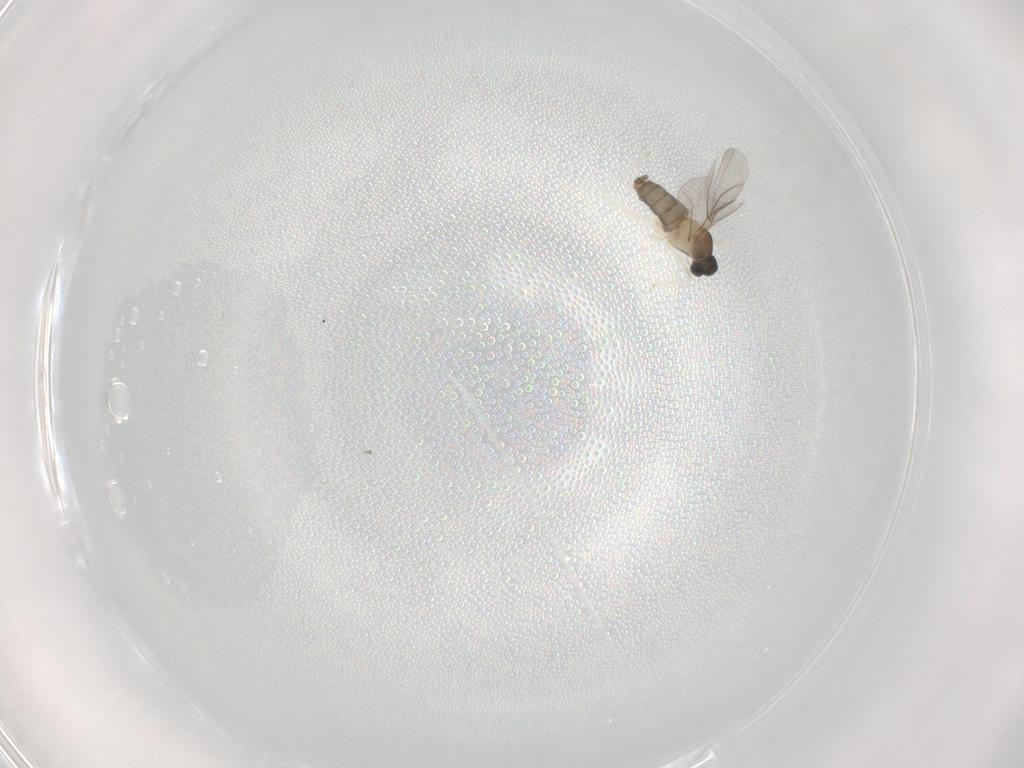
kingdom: Animalia
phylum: Arthropoda
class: Insecta
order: Diptera
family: Cecidomyiidae
